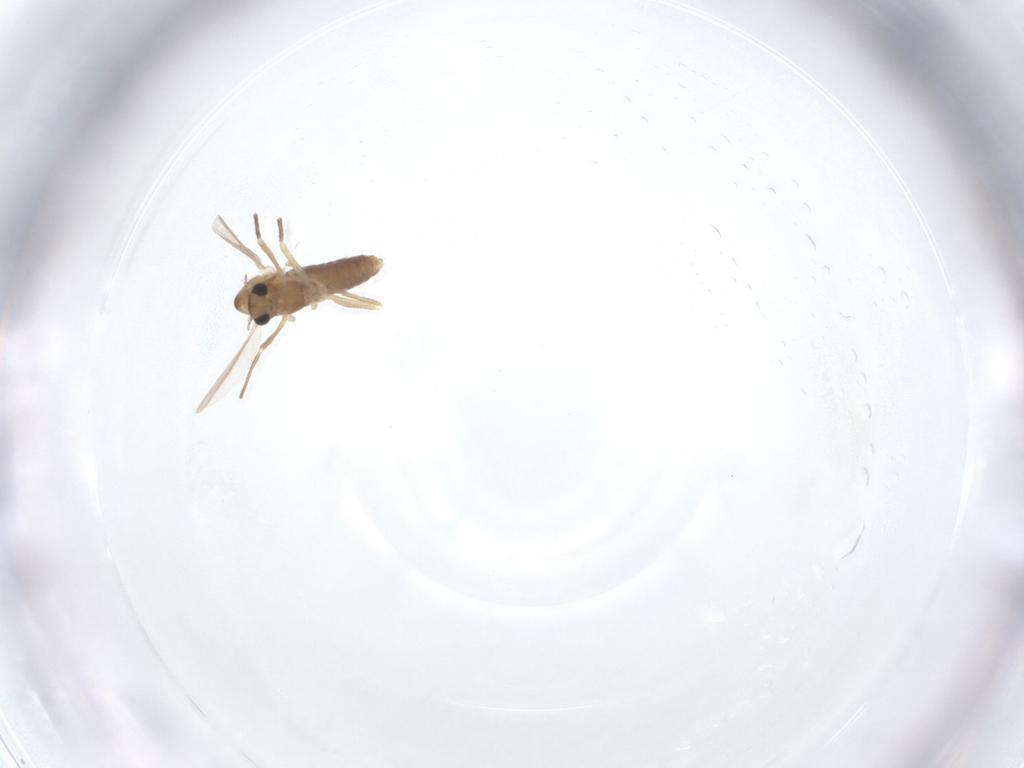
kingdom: Animalia
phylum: Arthropoda
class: Insecta
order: Diptera
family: Chironomidae
